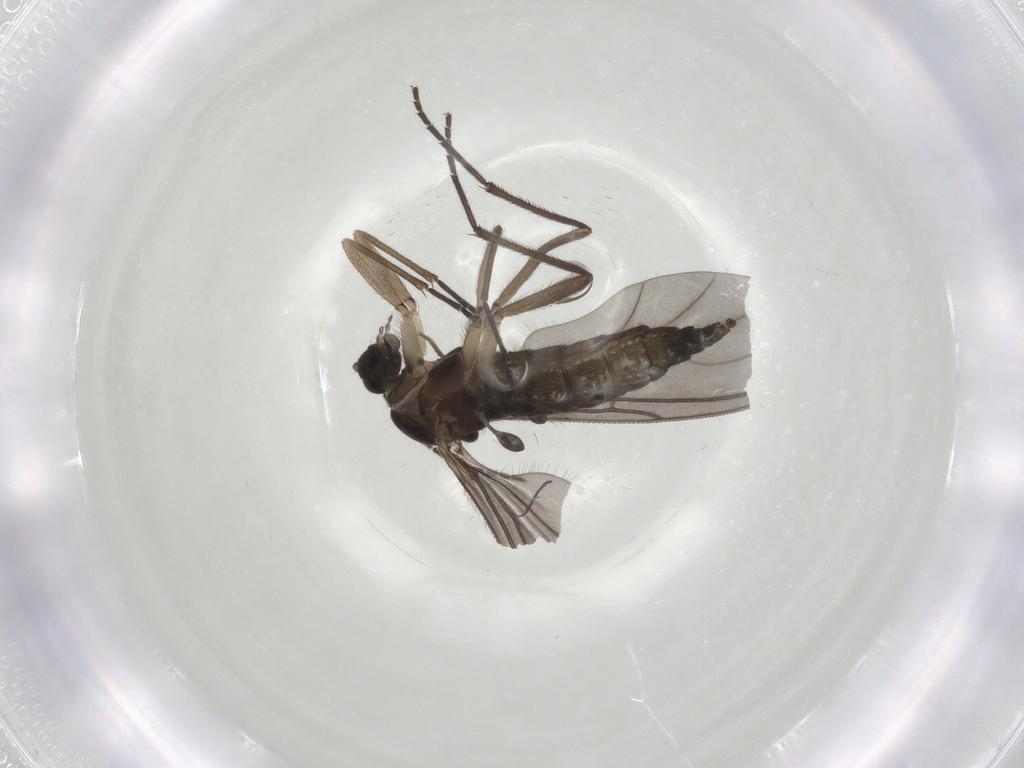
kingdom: Animalia
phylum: Arthropoda
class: Insecta
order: Diptera
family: Sciaridae
